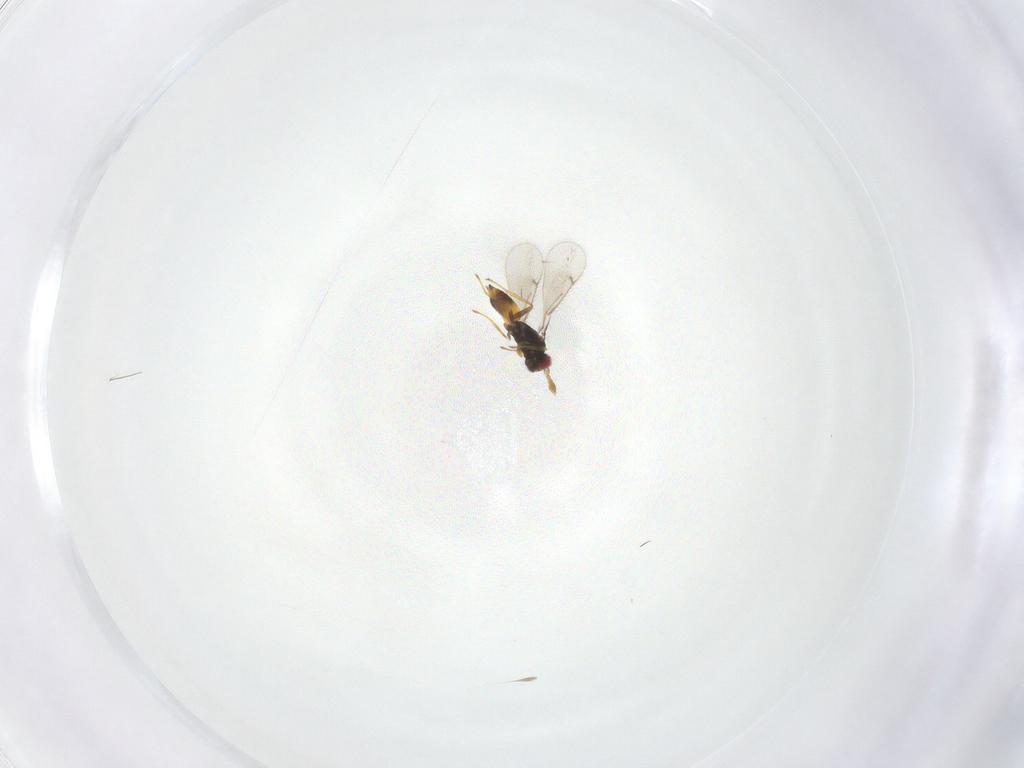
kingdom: Animalia
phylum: Arthropoda
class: Insecta
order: Hymenoptera
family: Eulophidae
